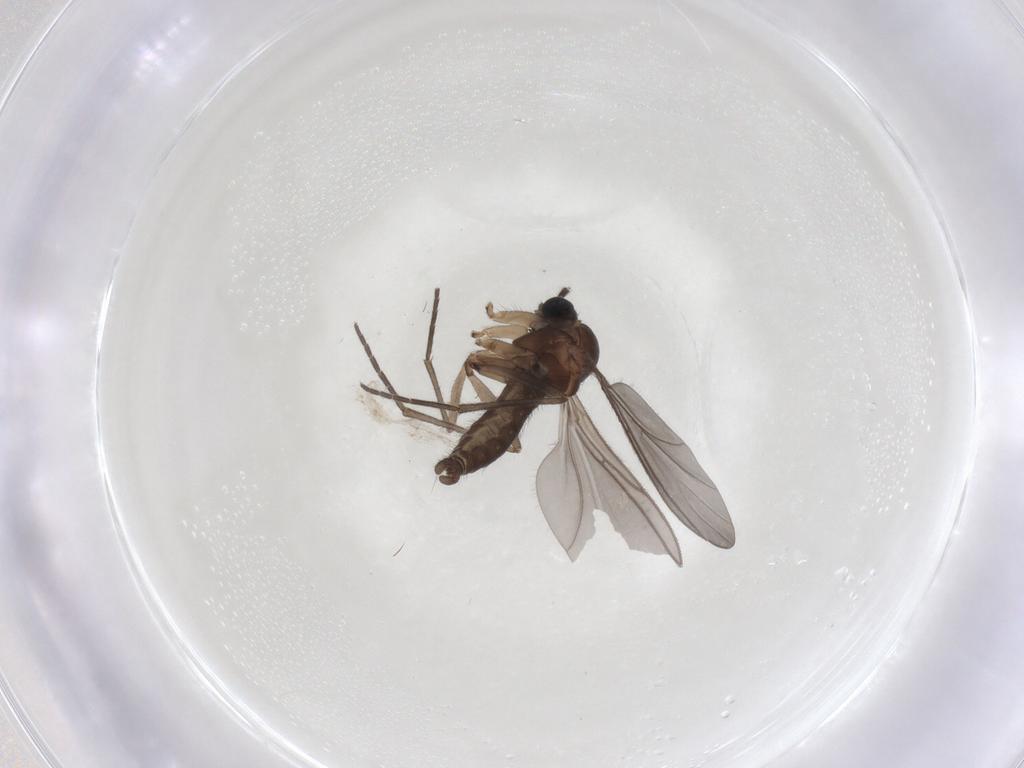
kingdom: Animalia
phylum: Arthropoda
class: Insecta
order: Diptera
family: Sciaridae
